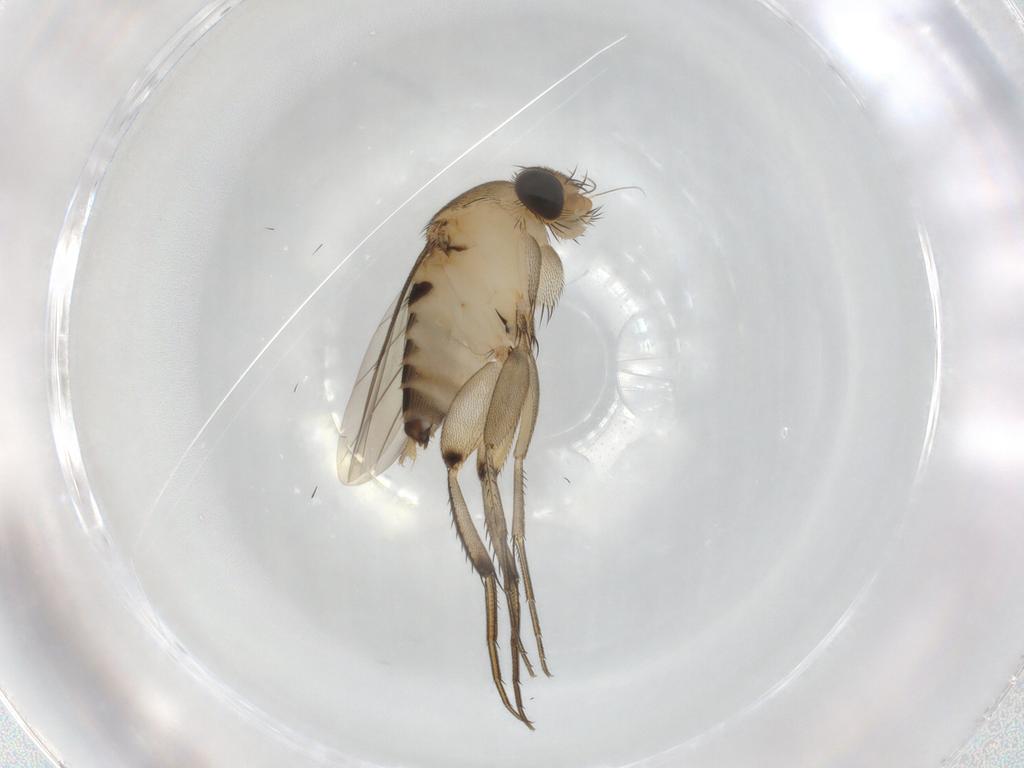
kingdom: Animalia
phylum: Arthropoda
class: Insecta
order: Diptera
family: Phoridae
